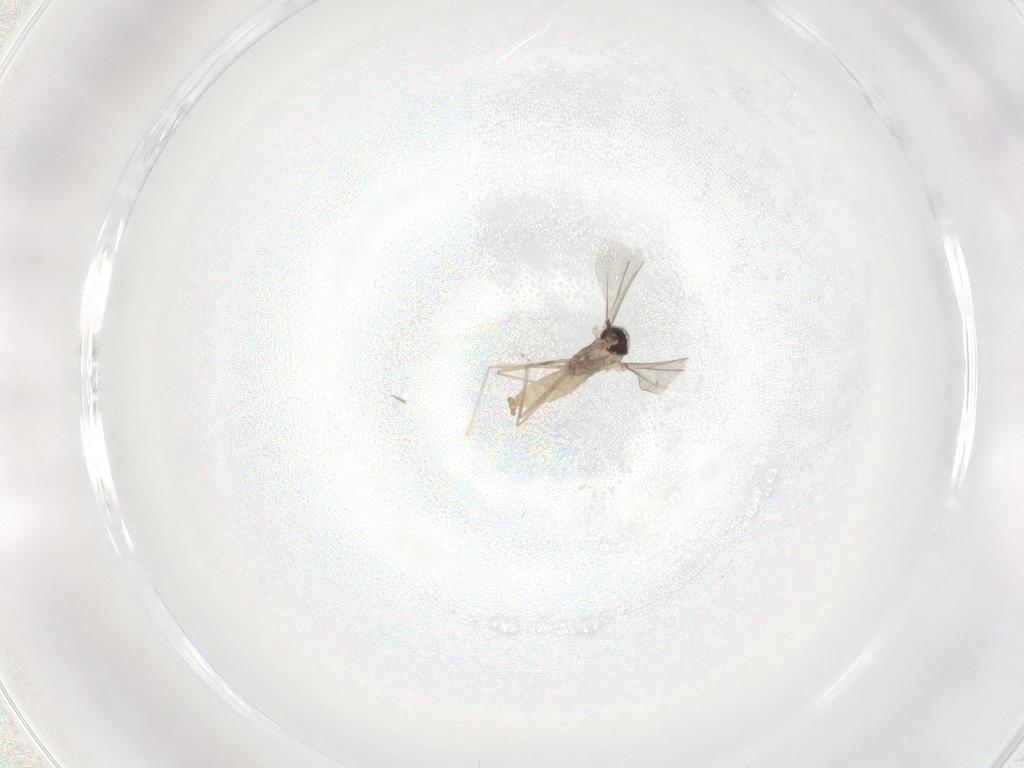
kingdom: Animalia
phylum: Arthropoda
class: Insecta
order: Diptera
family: Cecidomyiidae
